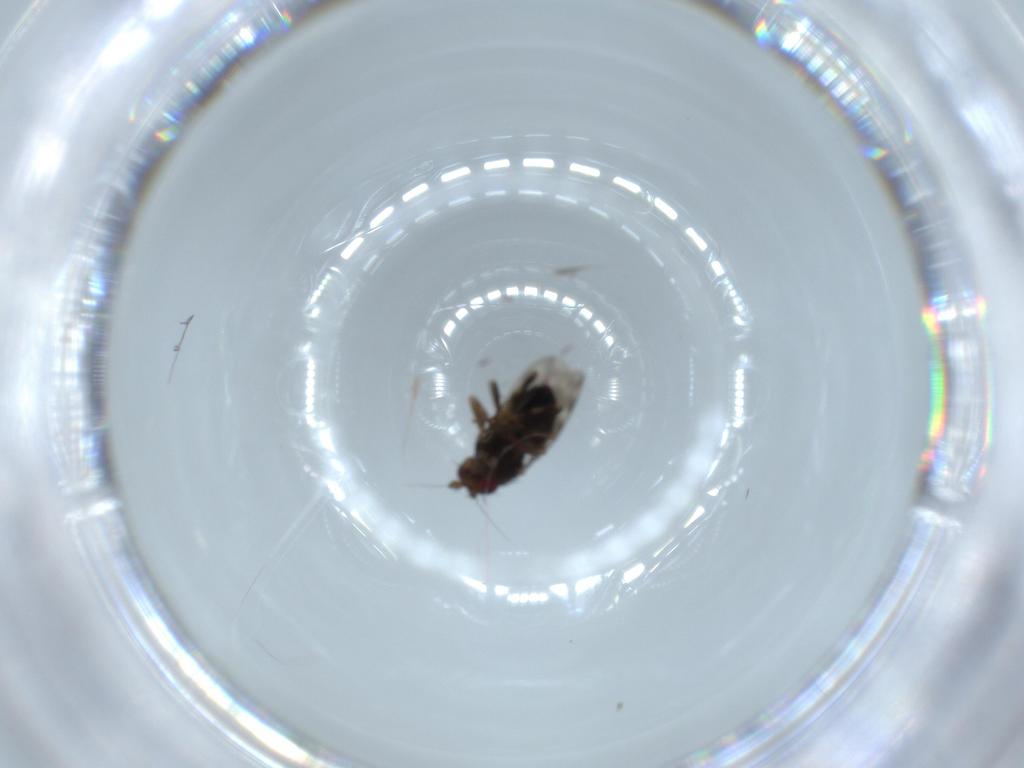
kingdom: Animalia
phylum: Arthropoda
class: Insecta
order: Diptera
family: Sphaeroceridae
